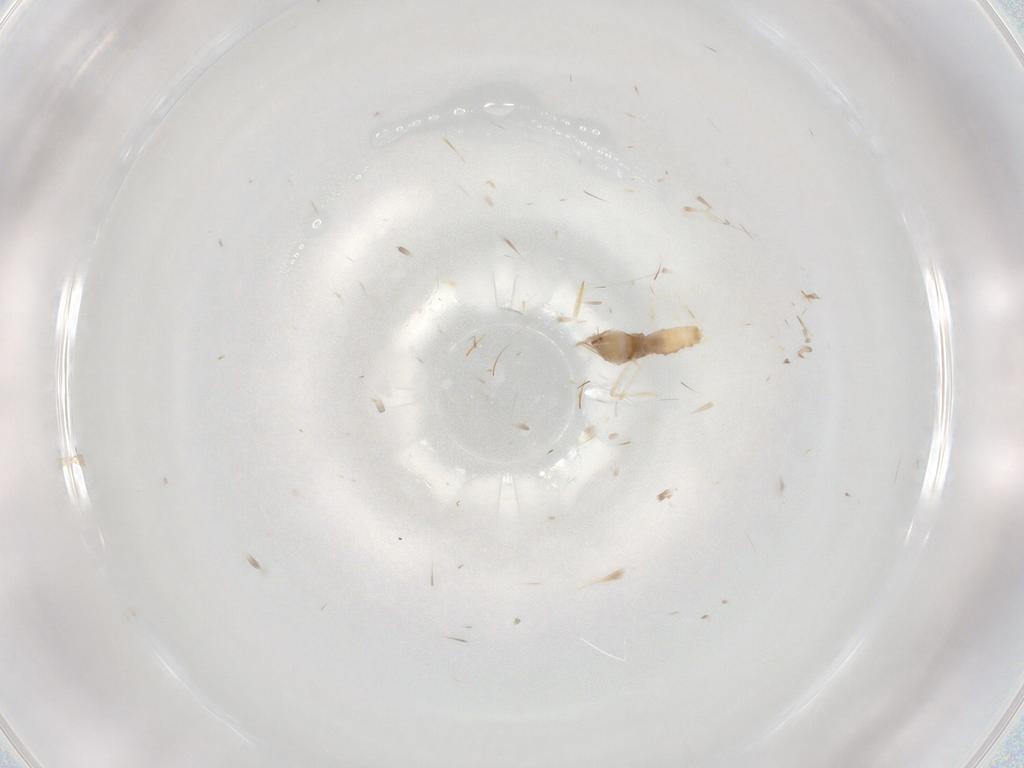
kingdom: Animalia
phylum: Arthropoda
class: Insecta
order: Diptera
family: Cecidomyiidae
